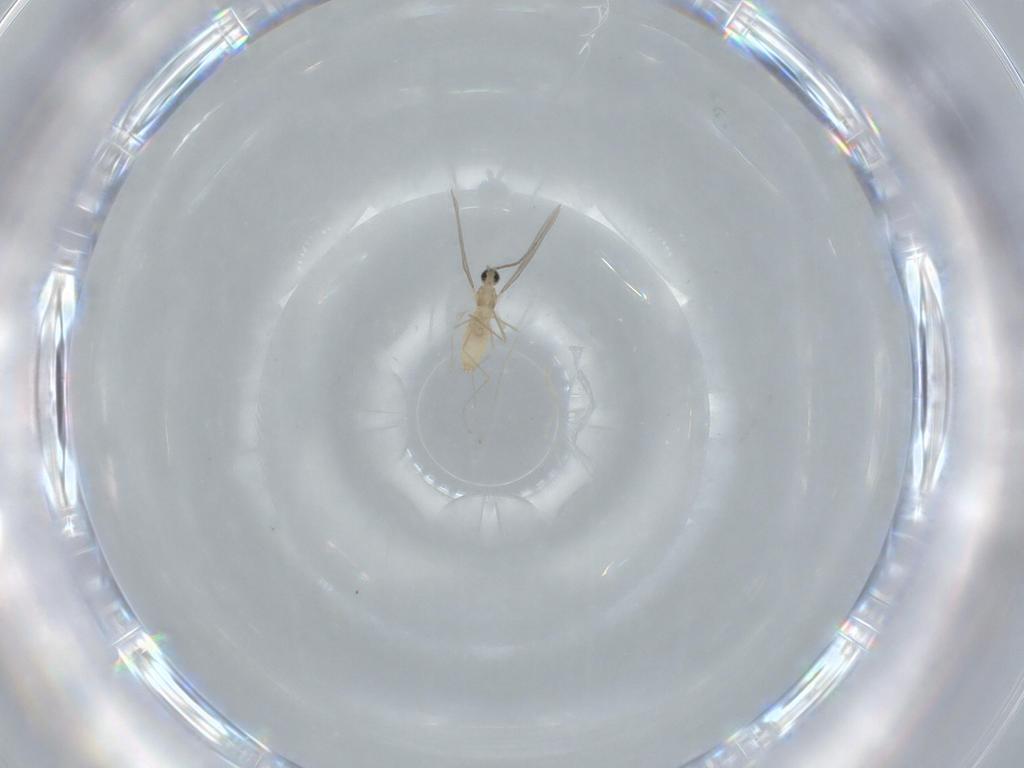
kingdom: Animalia
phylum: Arthropoda
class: Insecta
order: Diptera
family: Cecidomyiidae
